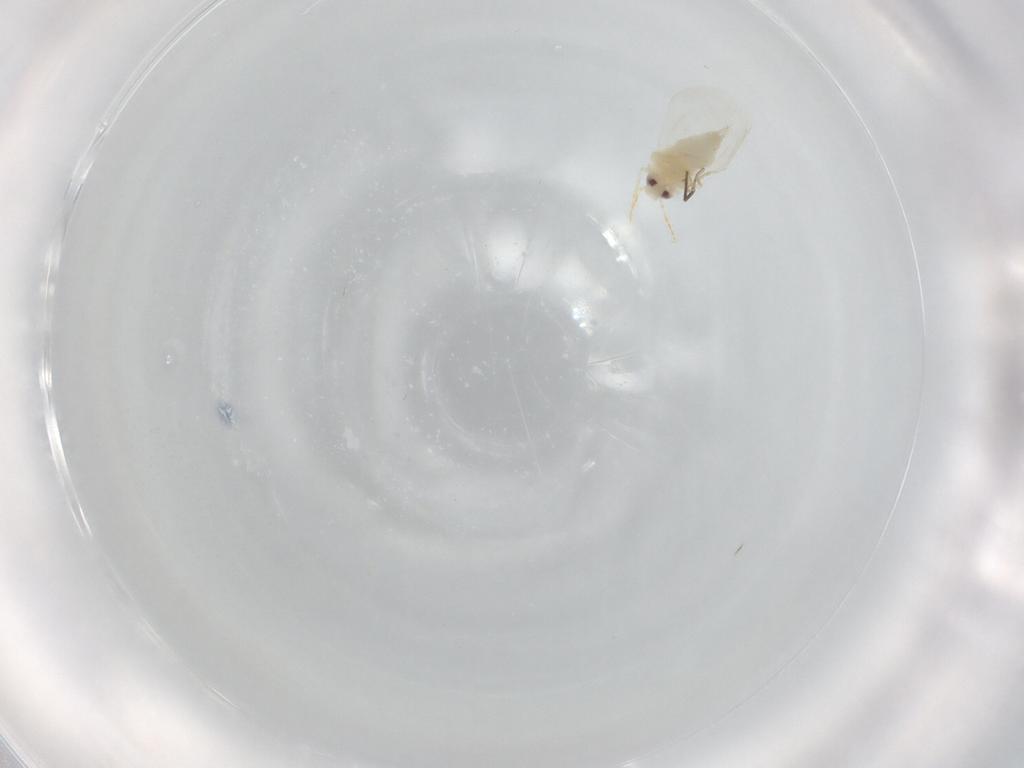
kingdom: Animalia
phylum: Arthropoda
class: Insecta
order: Hemiptera
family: Aleyrodidae
